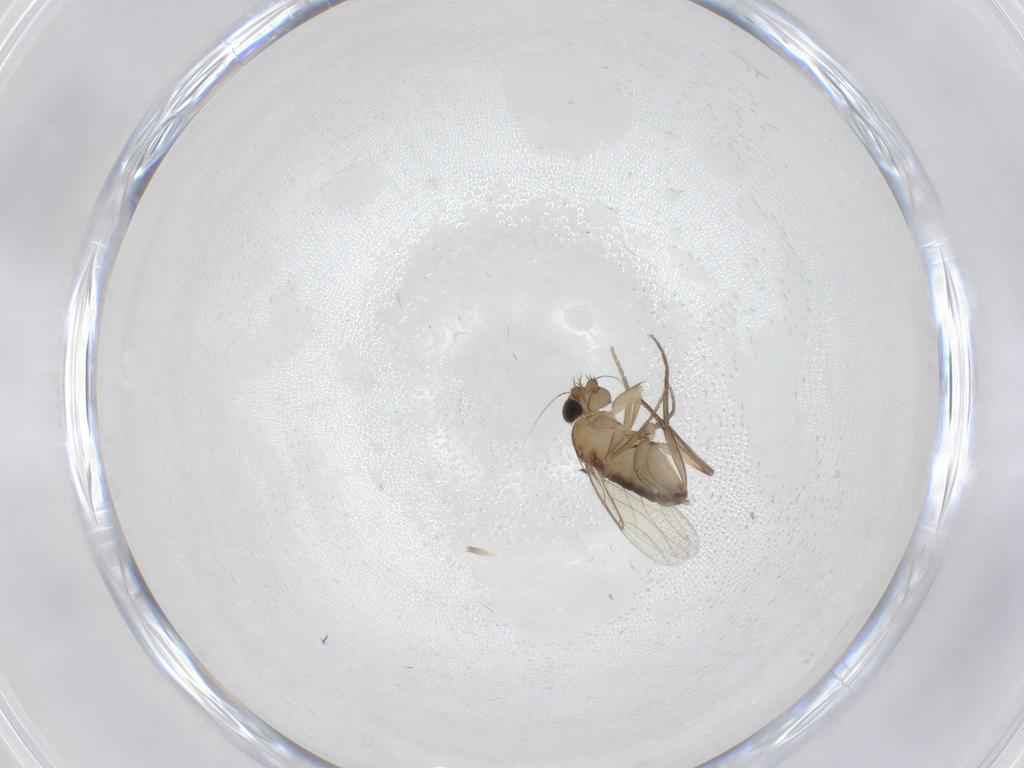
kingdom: Animalia
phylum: Arthropoda
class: Insecta
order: Diptera
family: Phoridae
